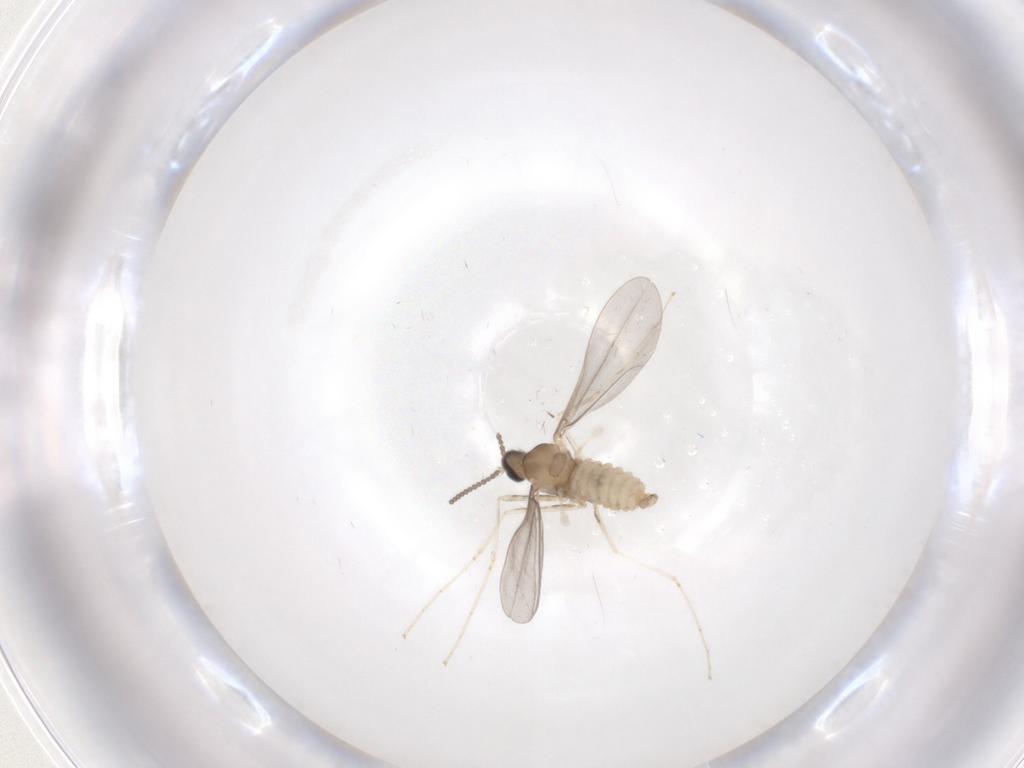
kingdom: Animalia
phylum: Arthropoda
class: Insecta
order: Diptera
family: Cecidomyiidae
